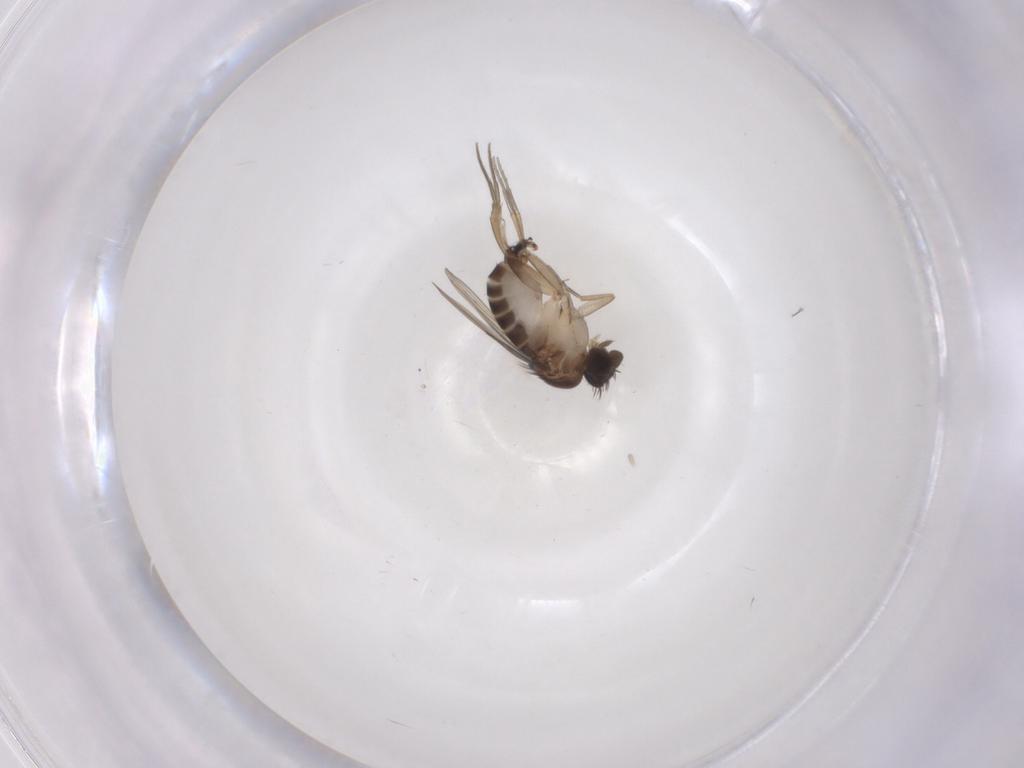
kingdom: Animalia
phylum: Arthropoda
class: Insecta
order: Diptera
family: Phoridae
